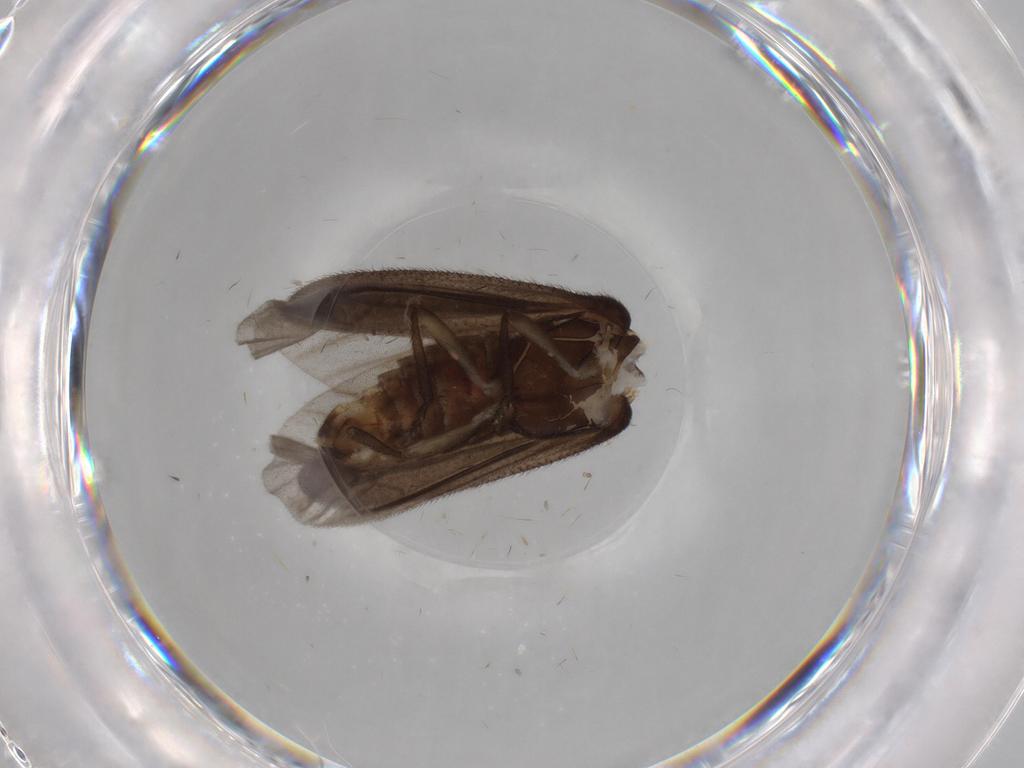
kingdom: Animalia
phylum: Arthropoda
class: Insecta
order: Coleoptera
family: Lampyridae
